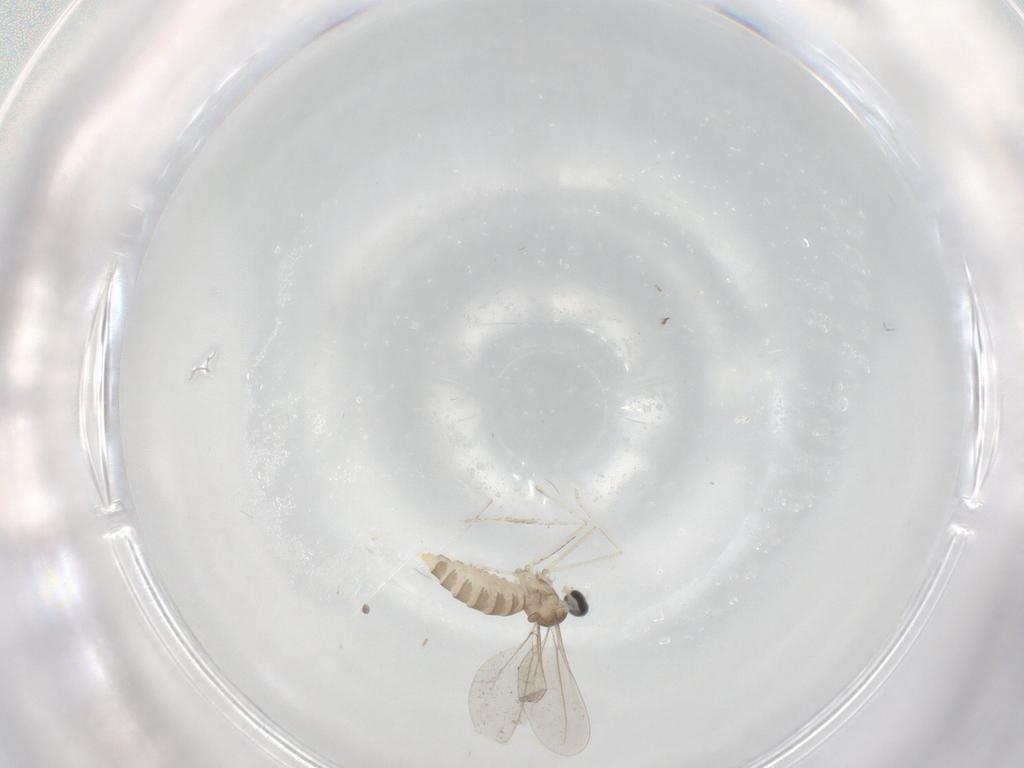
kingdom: Animalia
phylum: Arthropoda
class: Insecta
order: Diptera
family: Cecidomyiidae
